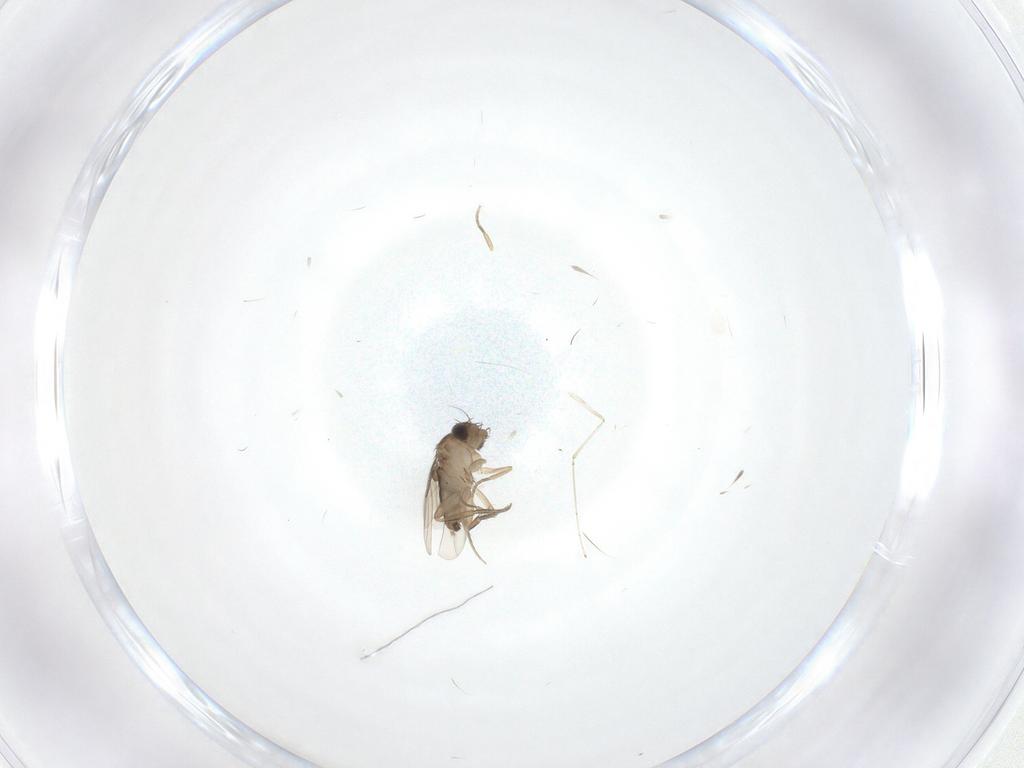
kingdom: Animalia
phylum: Arthropoda
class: Insecta
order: Diptera
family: Phoridae
